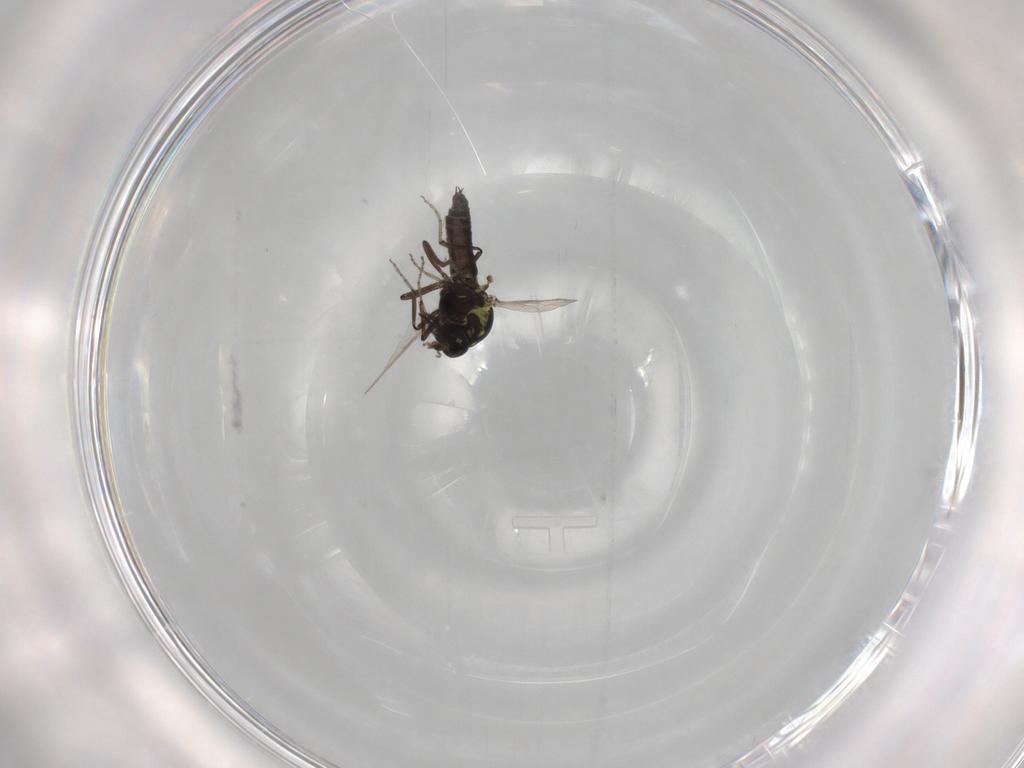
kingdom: Animalia
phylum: Arthropoda
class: Insecta
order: Diptera
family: Ceratopogonidae
